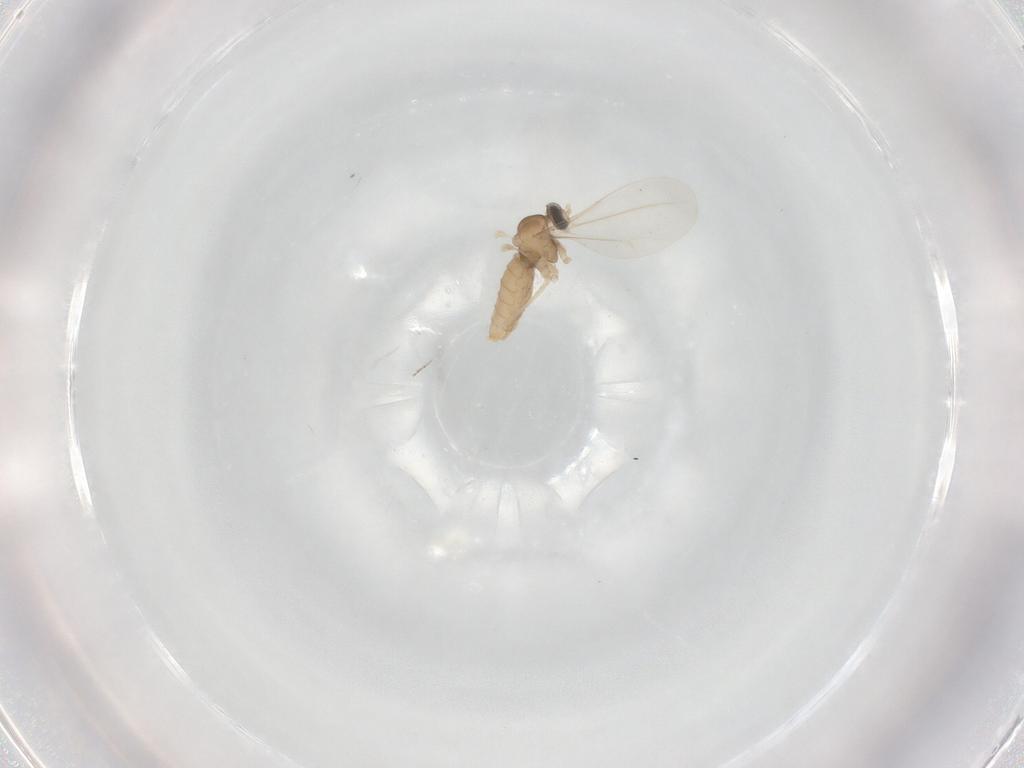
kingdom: Animalia
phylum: Arthropoda
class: Insecta
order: Diptera
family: Cecidomyiidae
